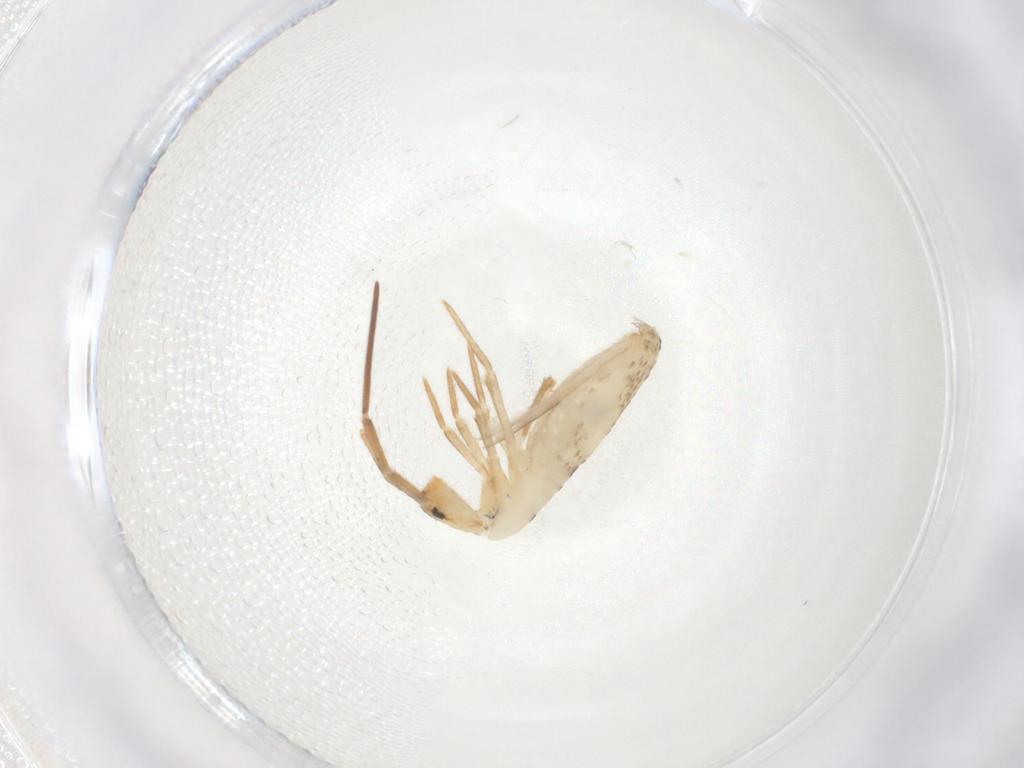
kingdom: Animalia
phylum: Arthropoda
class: Collembola
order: Entomobryomorpha
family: Entomobryidae
